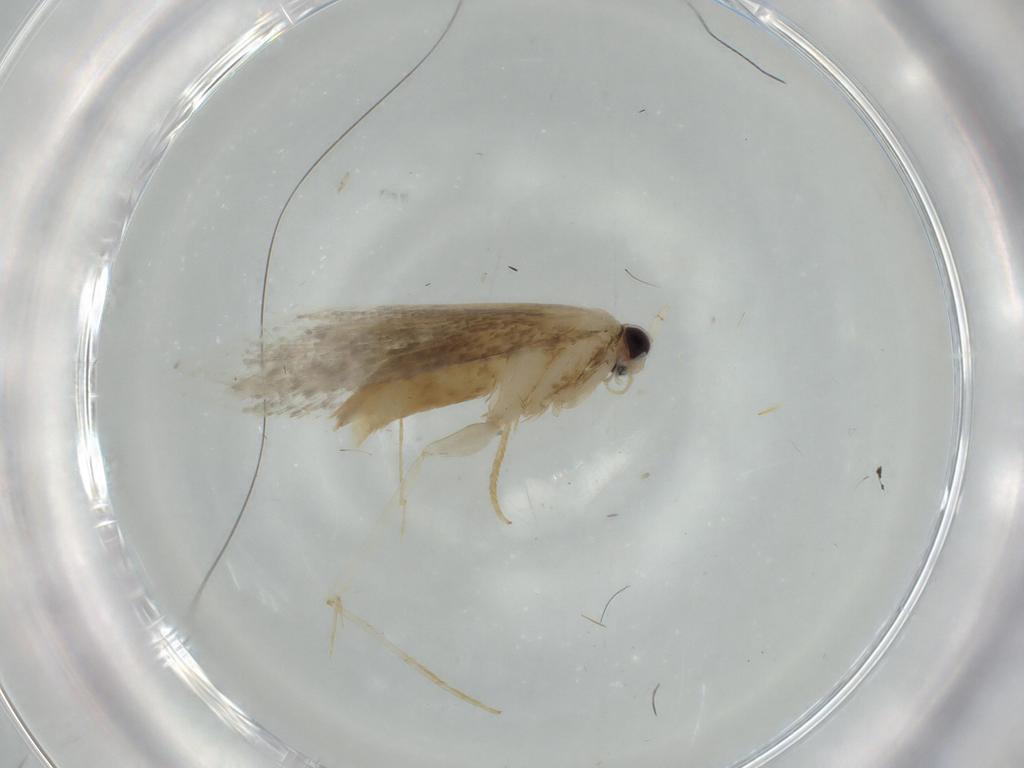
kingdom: Animalia
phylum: Arthropoda
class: Insecta
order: Lepidoptera
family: Tineidae
